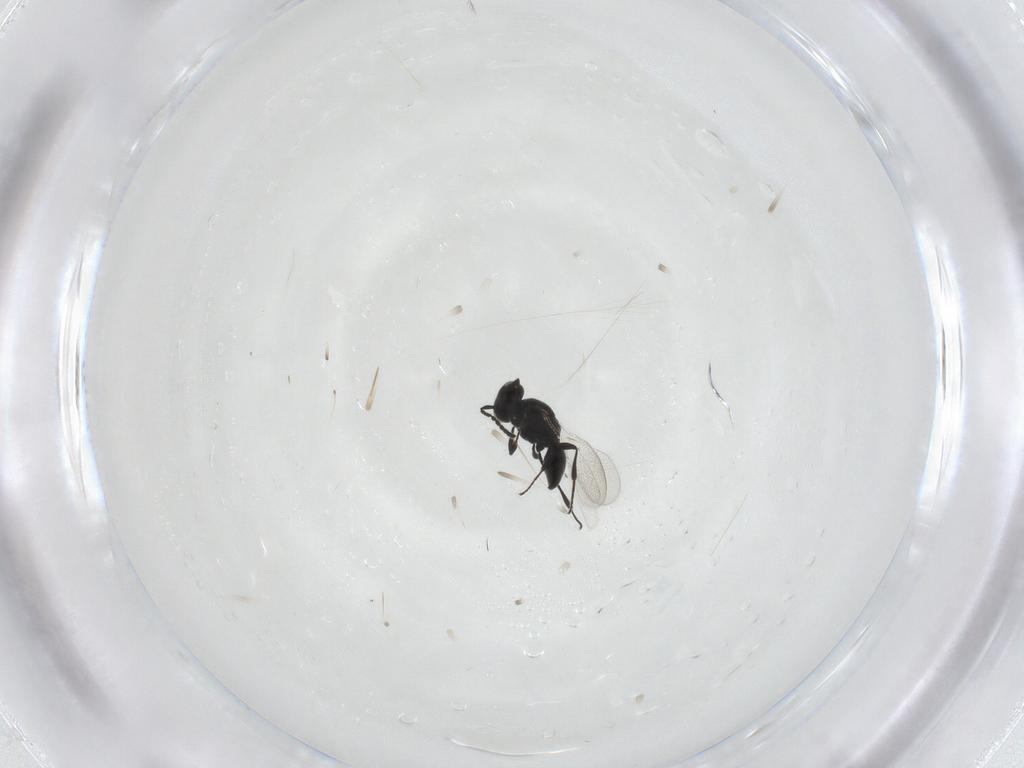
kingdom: Animalia
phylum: Arthropoda
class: Insecta
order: Hymenoptera
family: Platygastridae
